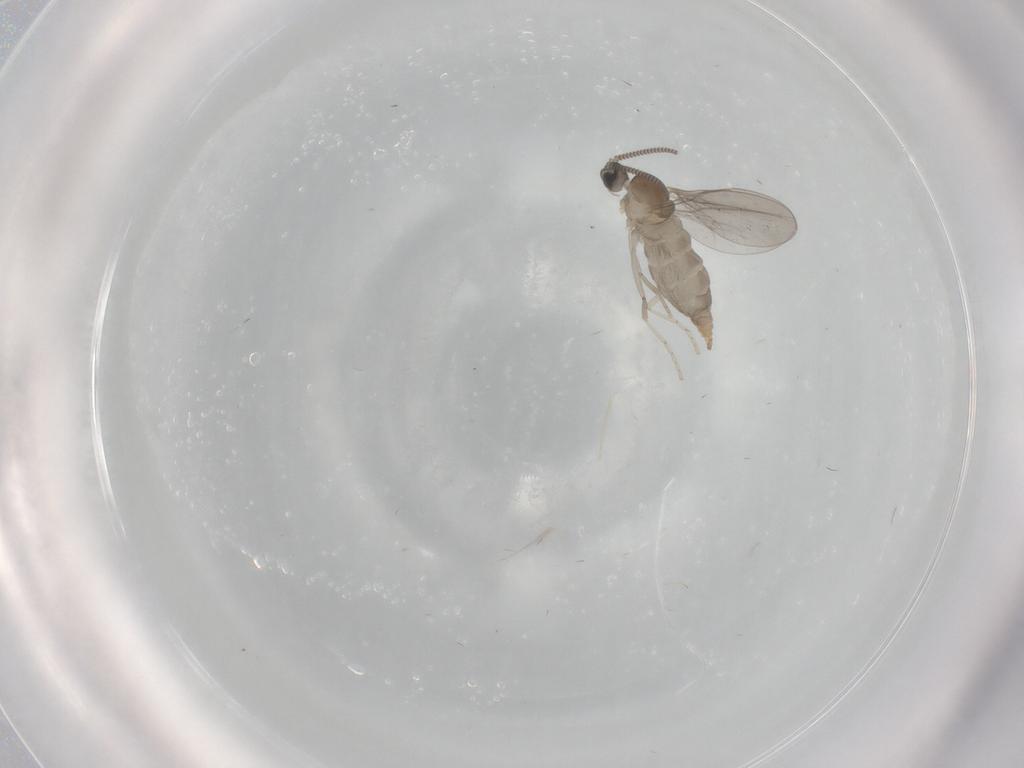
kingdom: Animalia
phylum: Arthropoda
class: Insecta
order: Diptera
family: Cecidomyiidae
